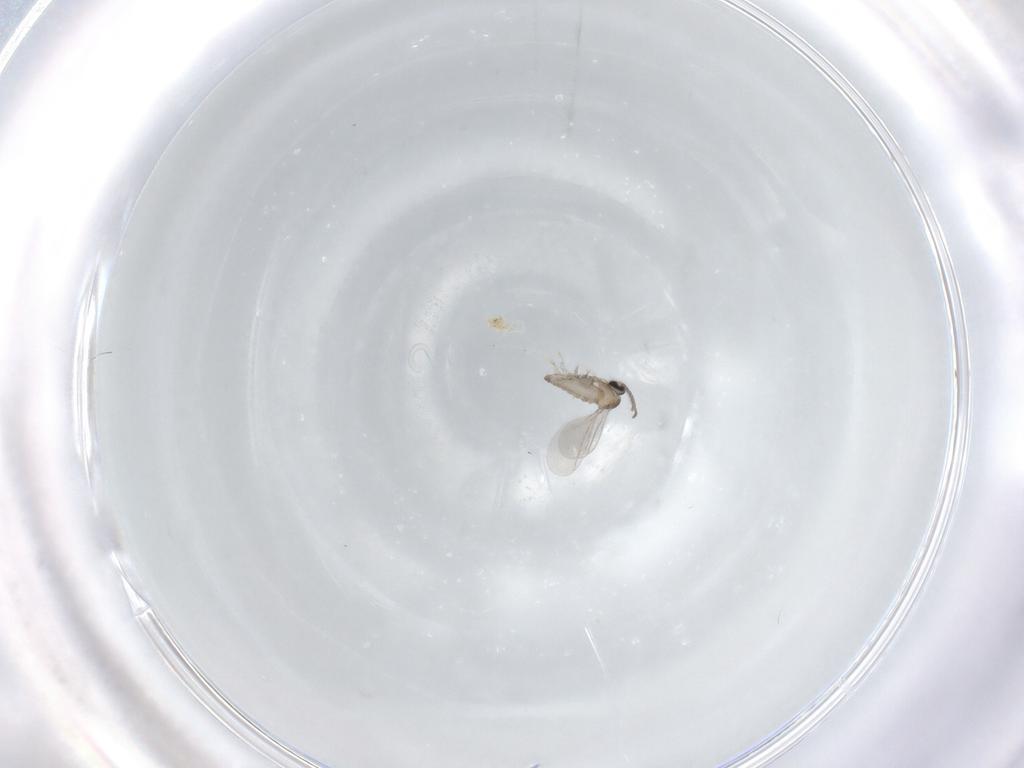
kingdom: Animalia
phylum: Arthropoda
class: Insecta
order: Diptera
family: Cecidomyiidae
